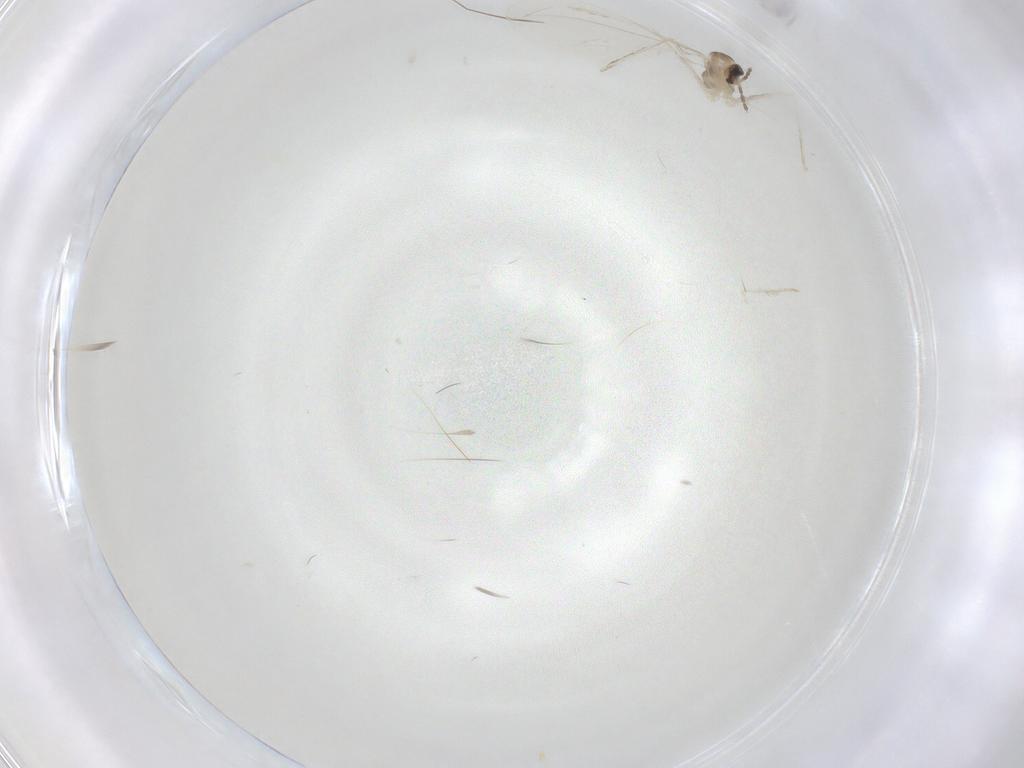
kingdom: Animalia
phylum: Arthropoda
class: Insecta
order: Diptera
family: Cecidomyiidae
